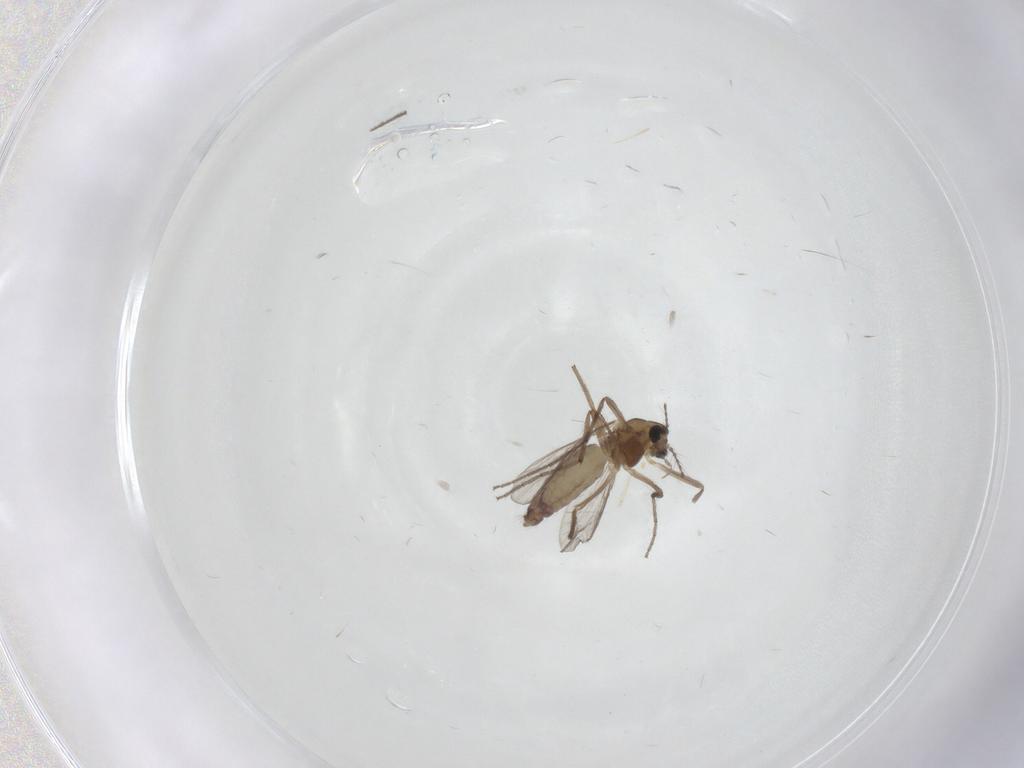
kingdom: Animalia
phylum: Arthropoda
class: Insecta
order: Diptera
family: Chironomidae
